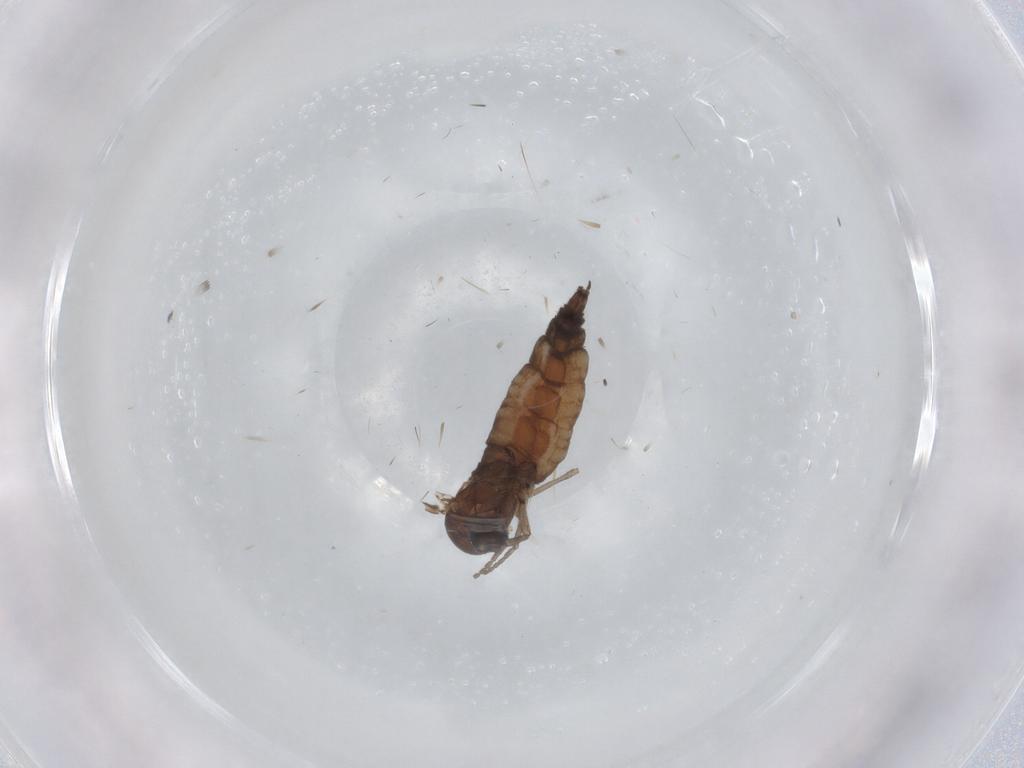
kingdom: Animalia
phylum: Arthropoda
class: Insecta
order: Diptera
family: Sciaridae
